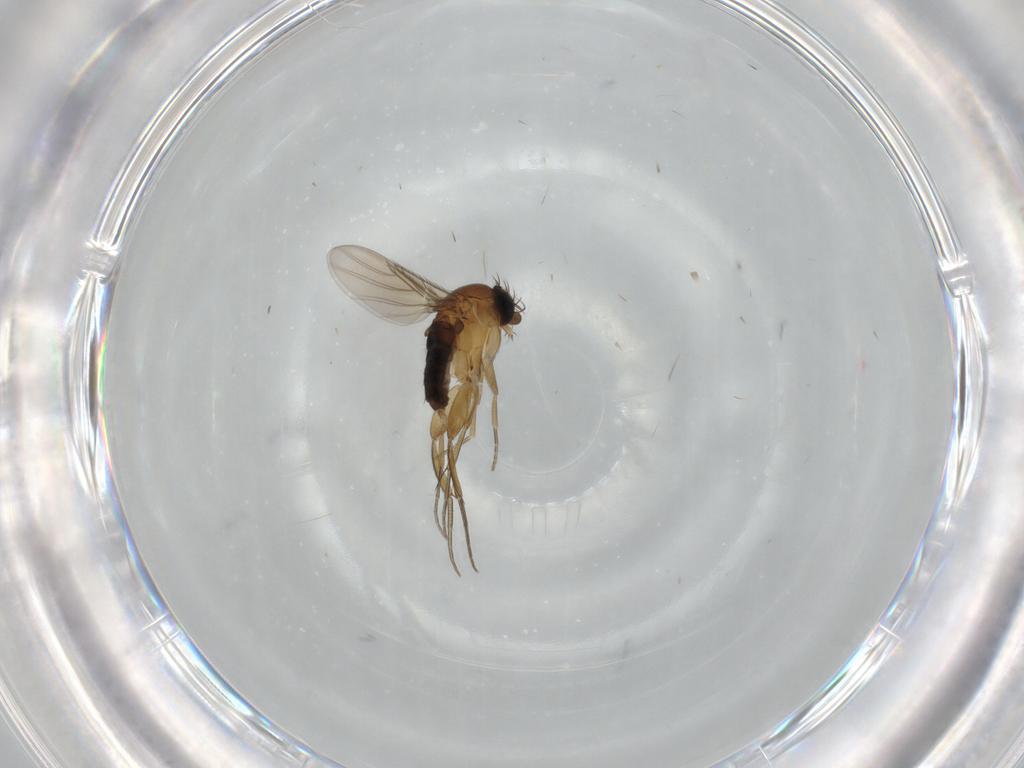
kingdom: Animalia
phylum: Arthropoda
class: Insecta
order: Diptera
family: Phoridae
